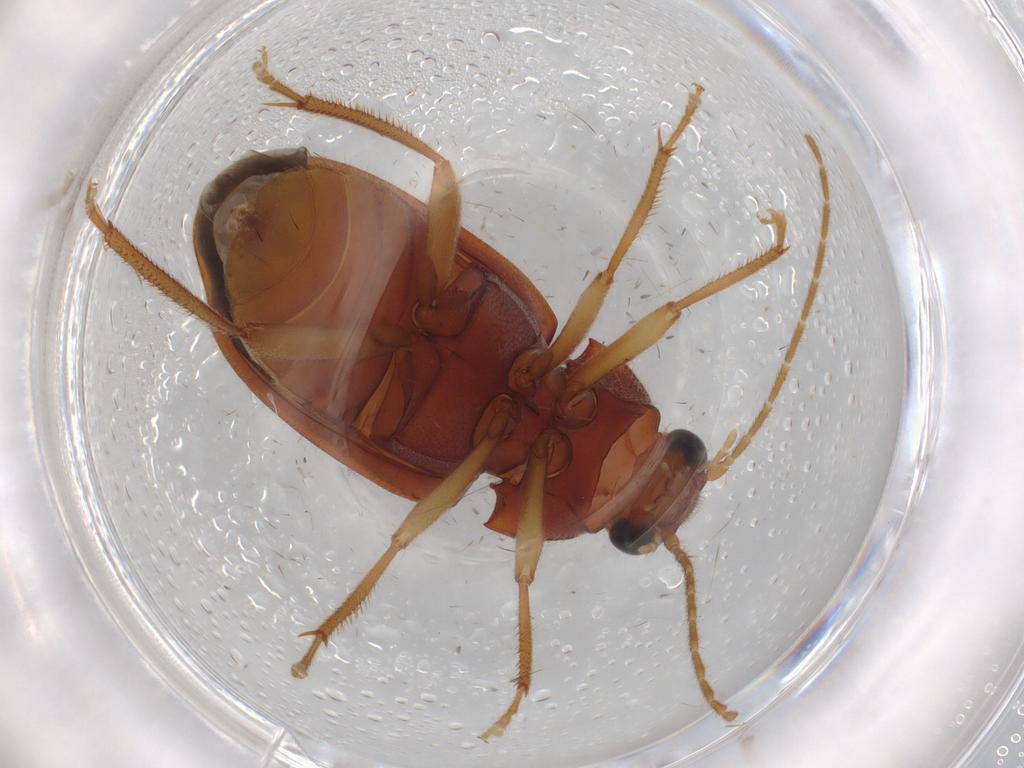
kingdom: Animalia
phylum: Arthropoda
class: Insecta
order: Coleoptera
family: Ptilodactylidae
